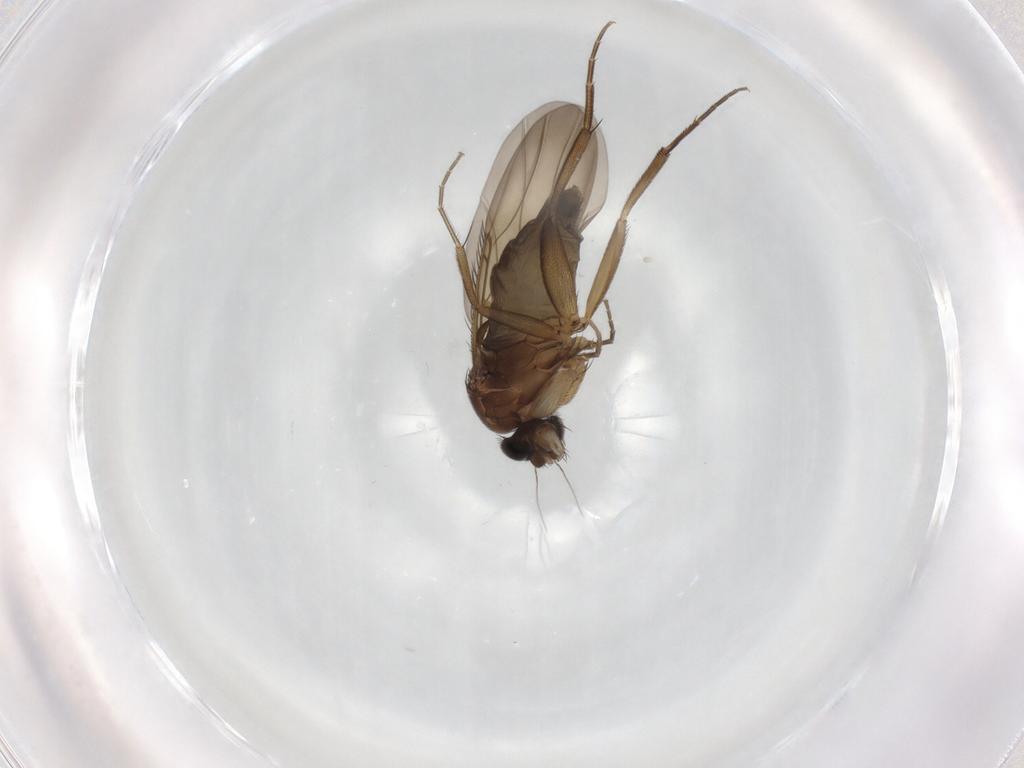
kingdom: Animalia
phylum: Arthropoda
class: Insecta
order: Diptera
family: Phoridae
